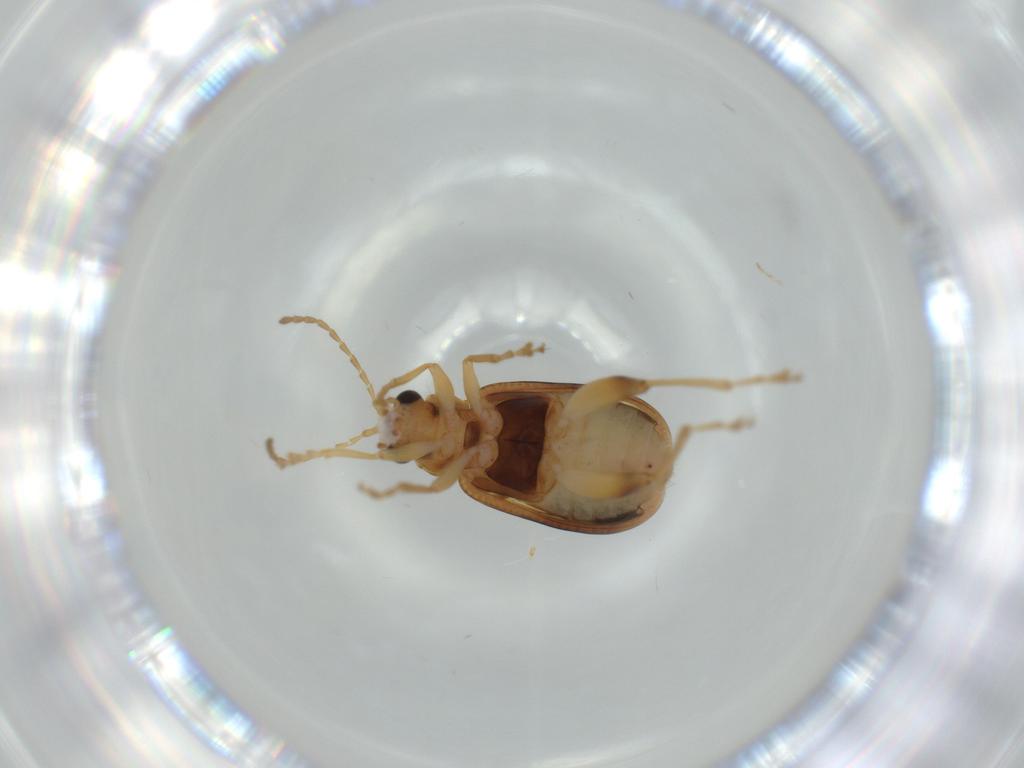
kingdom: Animalia
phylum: Arthropoda
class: Insecta
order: Coleoptera
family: Chrysomelidae
